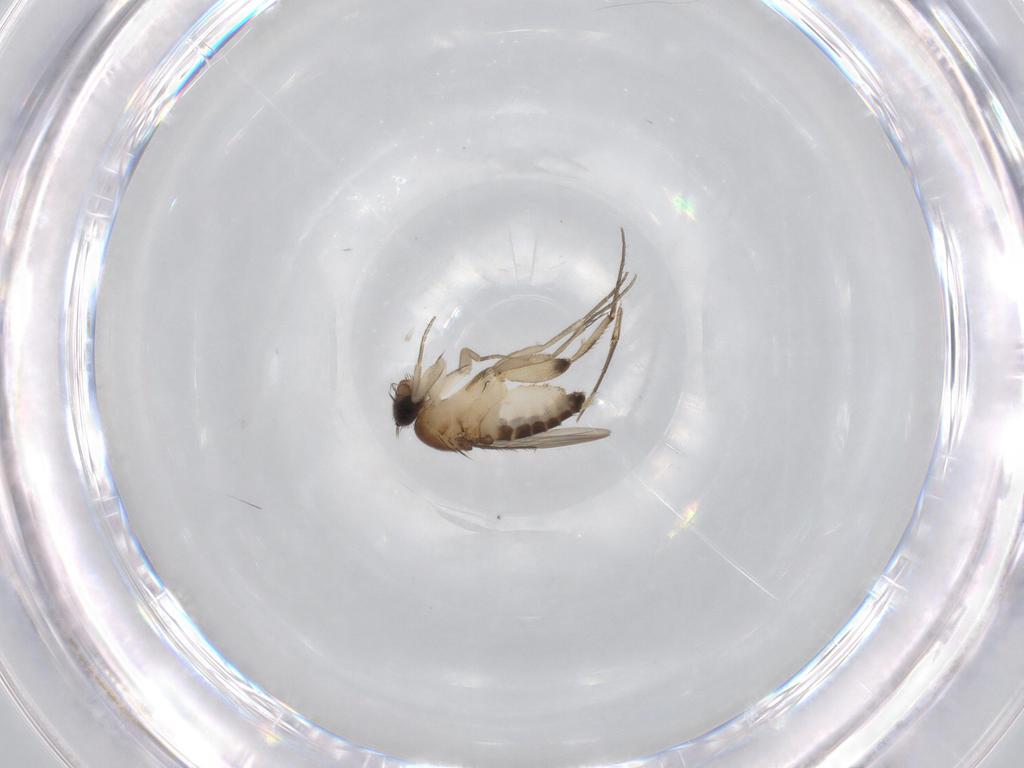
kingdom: Animalia
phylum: Arthropoda
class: Insecta
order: Diptera
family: Phoridae
